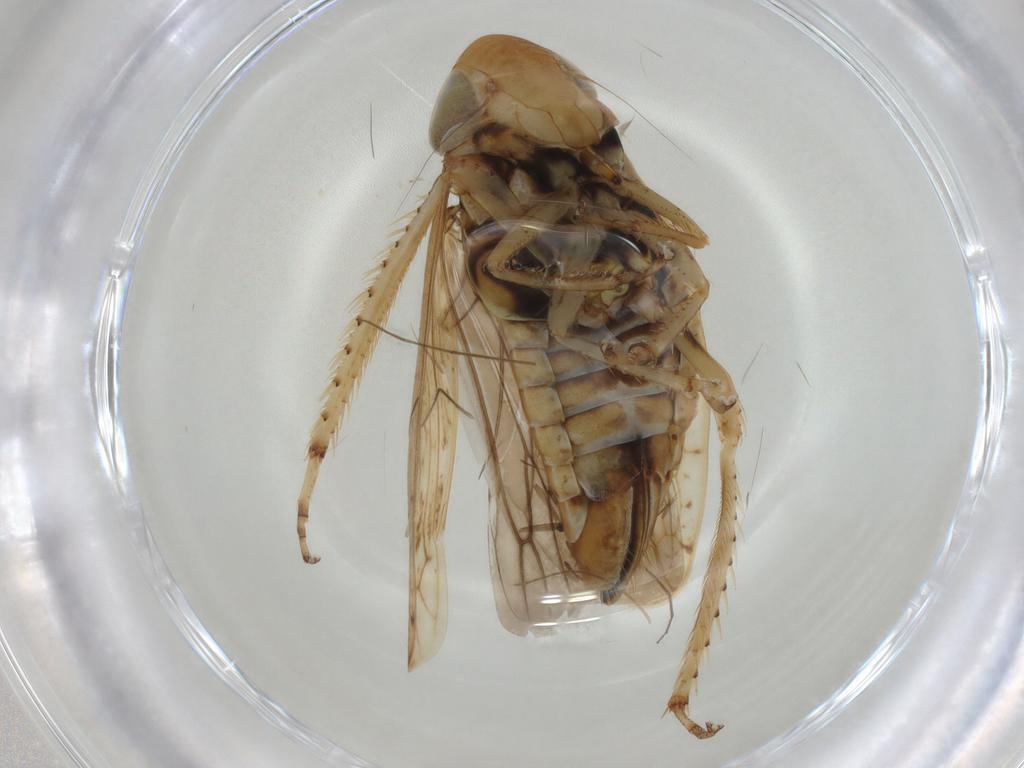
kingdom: Animalia
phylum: Arthropoda
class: Insecta
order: Hemiptera
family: Cicadellidae
